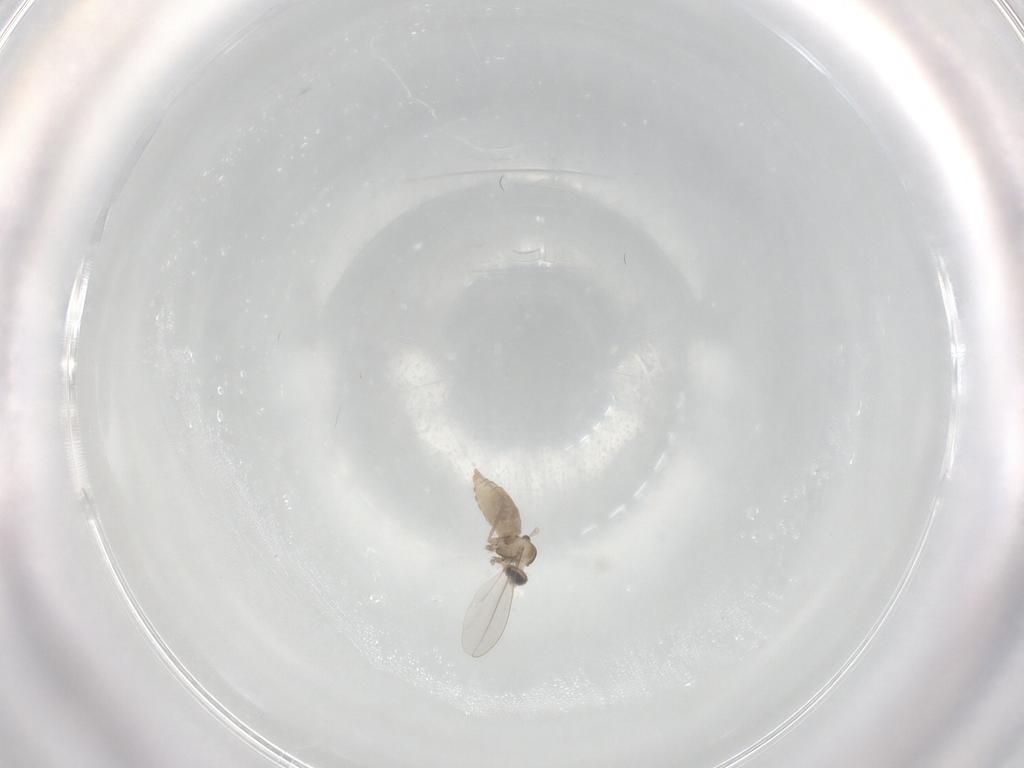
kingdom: Animalia
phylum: Arthropoda
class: Insecta
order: Diptera
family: Cecidomyiidae
